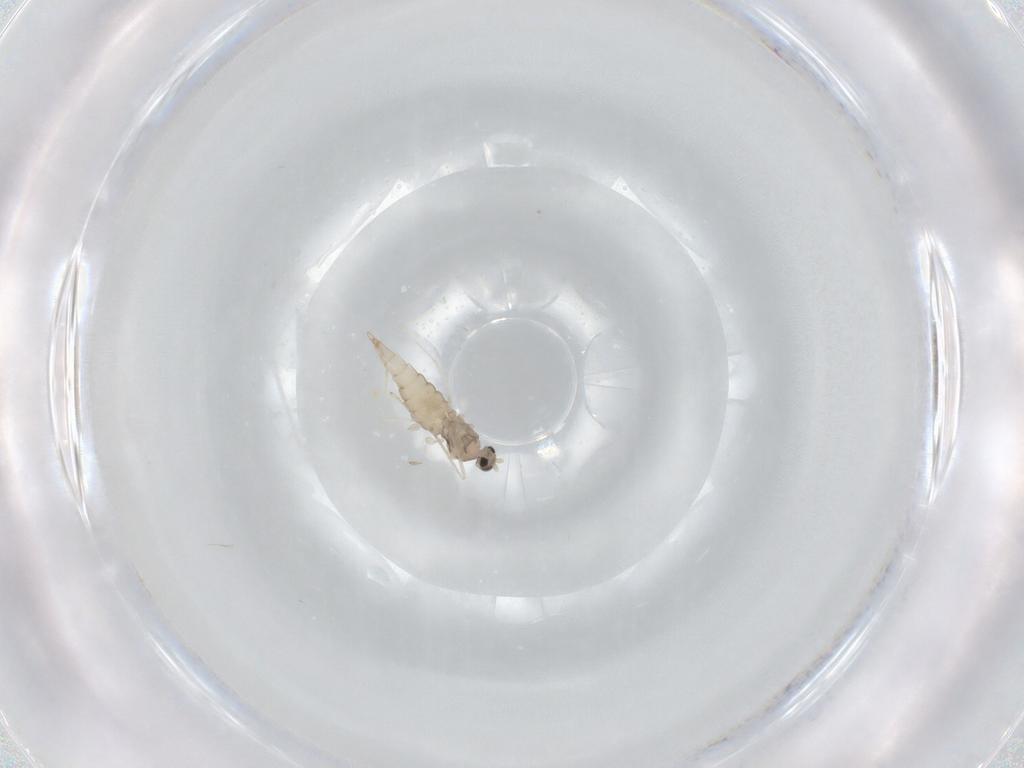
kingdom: Animalia
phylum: Arthropoda
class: Insecta
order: Diptera
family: Cecidomyiidae
